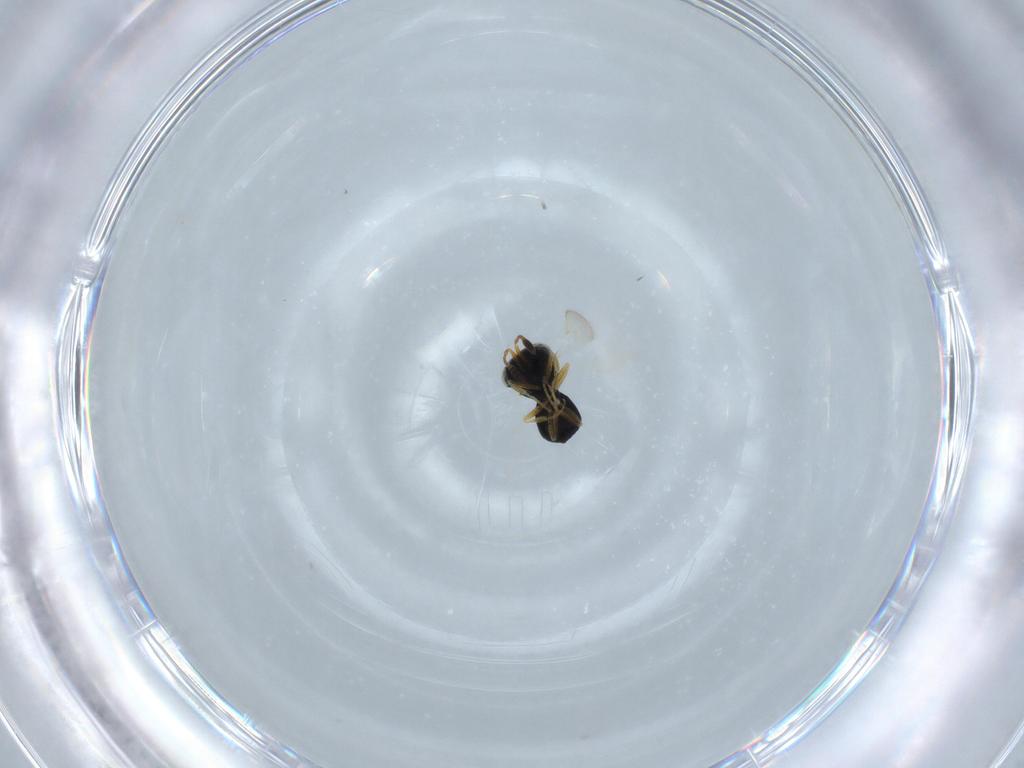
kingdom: Animalia
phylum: Arthropoda
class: Insecta
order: Hymenoptera
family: Scelionidae
